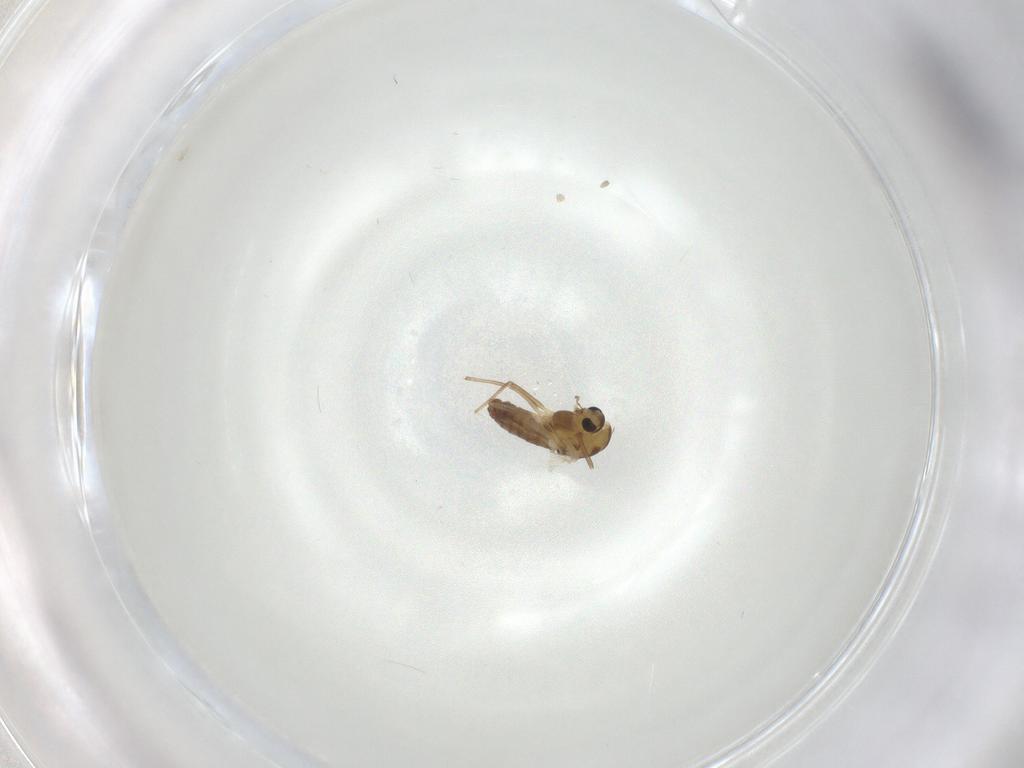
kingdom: Animalia
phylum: Arthropoda
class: Insecta
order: Diptera
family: Chironomidae
